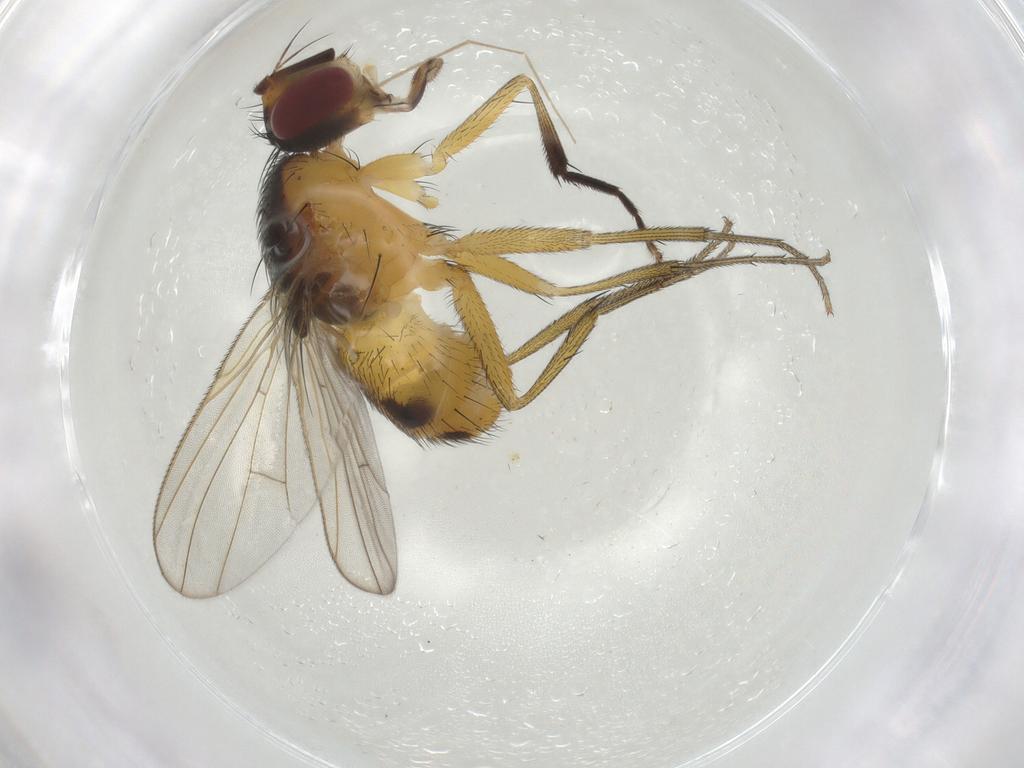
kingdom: Animalia
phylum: Arthropoda
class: Insecta
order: Diptera
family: Muscidae
